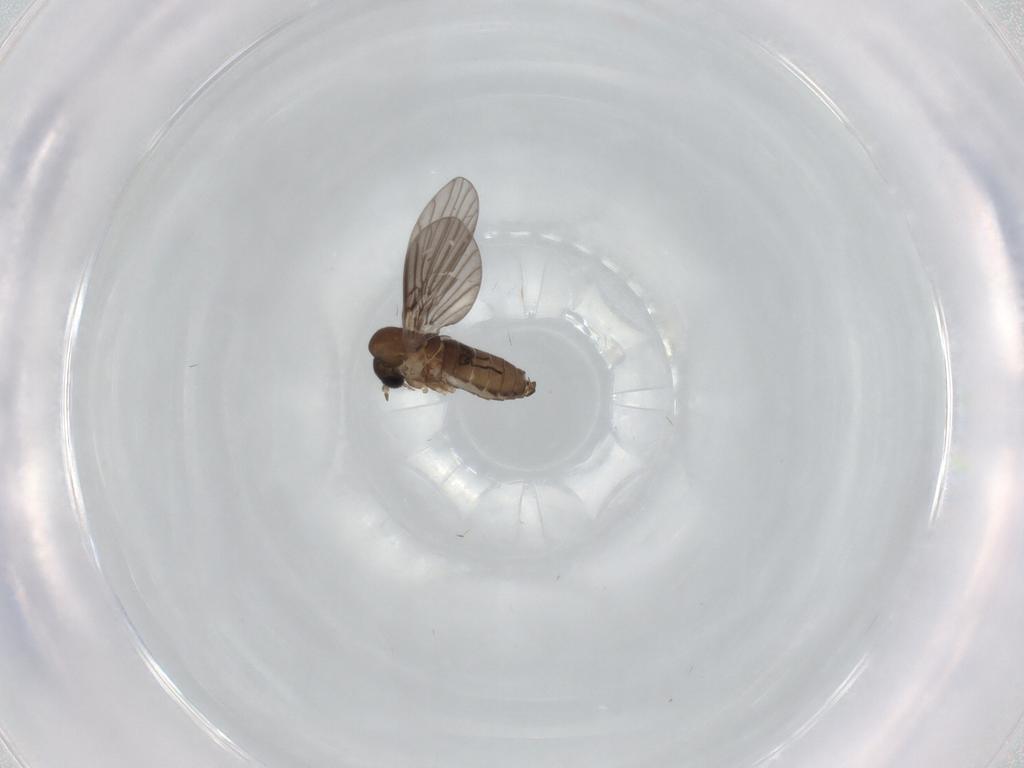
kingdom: Animalia
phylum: Arthropoda
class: Insecta
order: Diptera
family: Psychodidae
